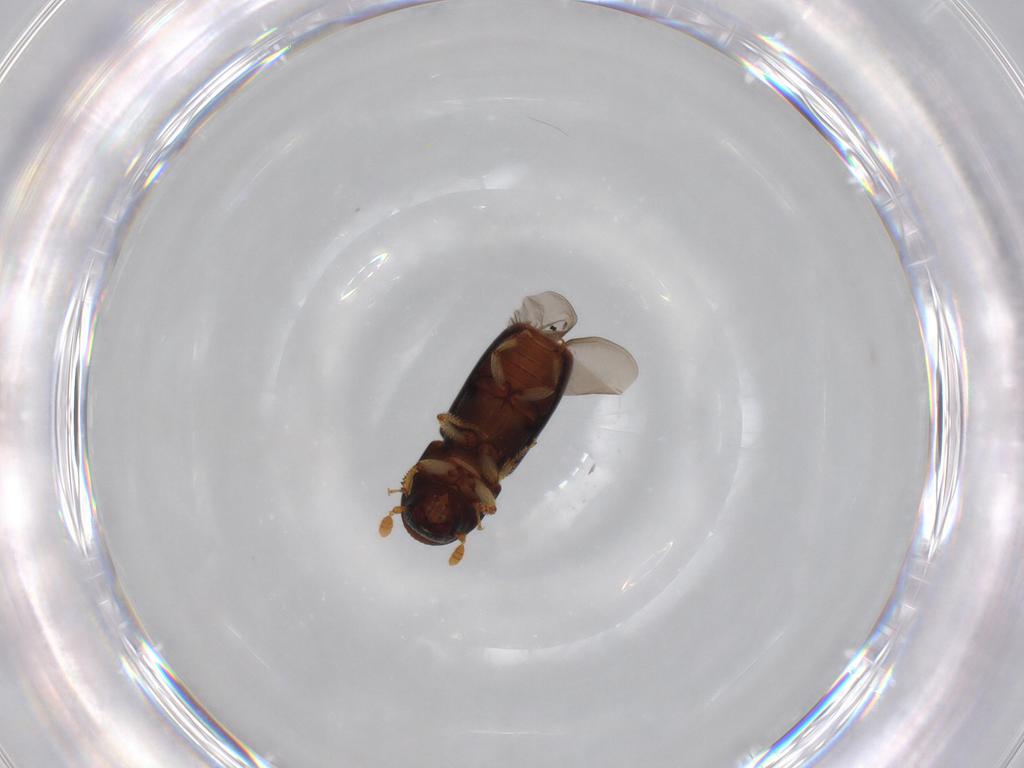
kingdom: Animalia
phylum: Arthropoda
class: Insecta
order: Coleoptera
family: Curculionidae
